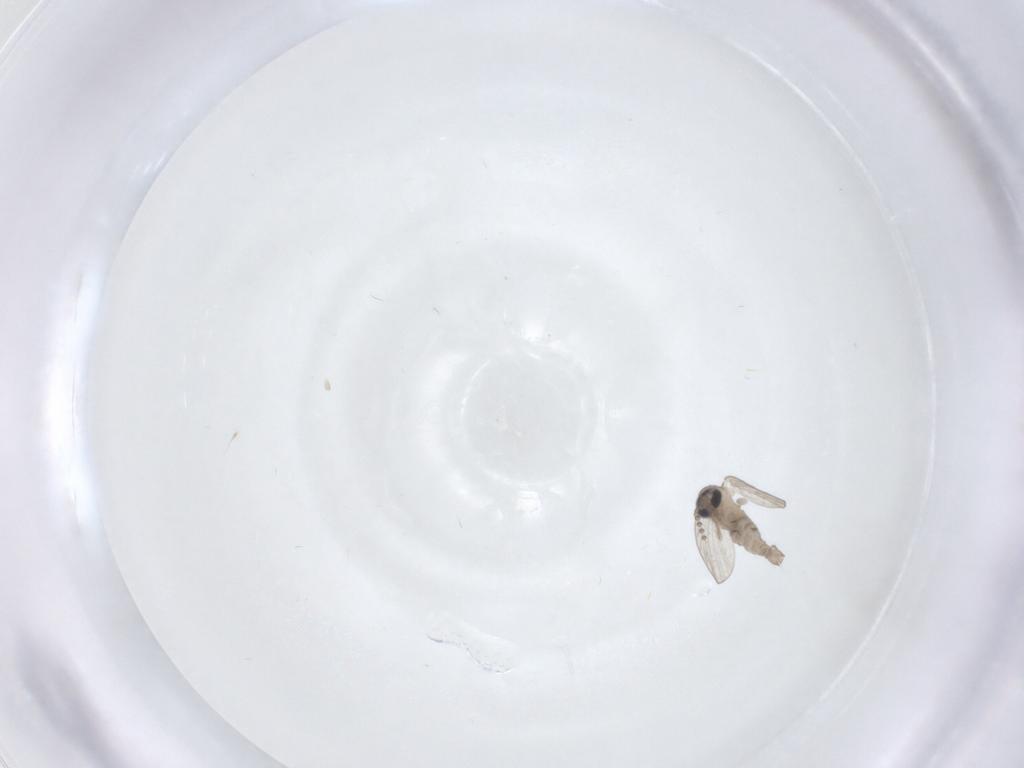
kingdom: Animalia
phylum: Arthropoda
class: Insecta
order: Diptera
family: Psychodidae
